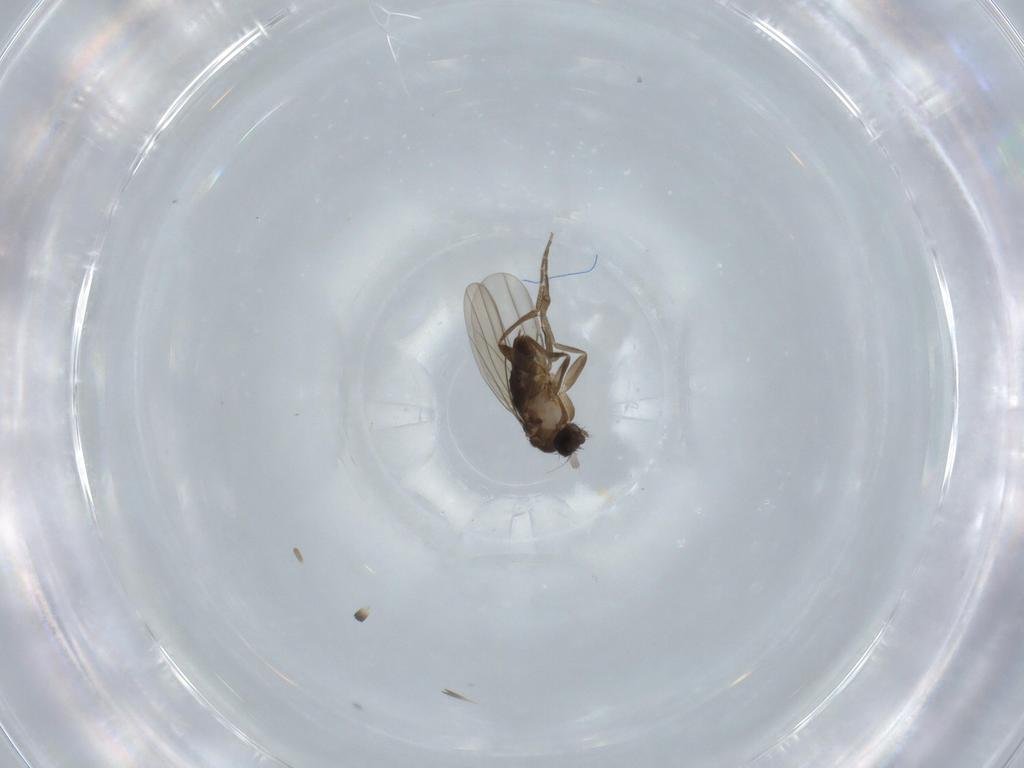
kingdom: Animalia
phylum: Arthropoda
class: Insecta
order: Diptera
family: Phoridae
